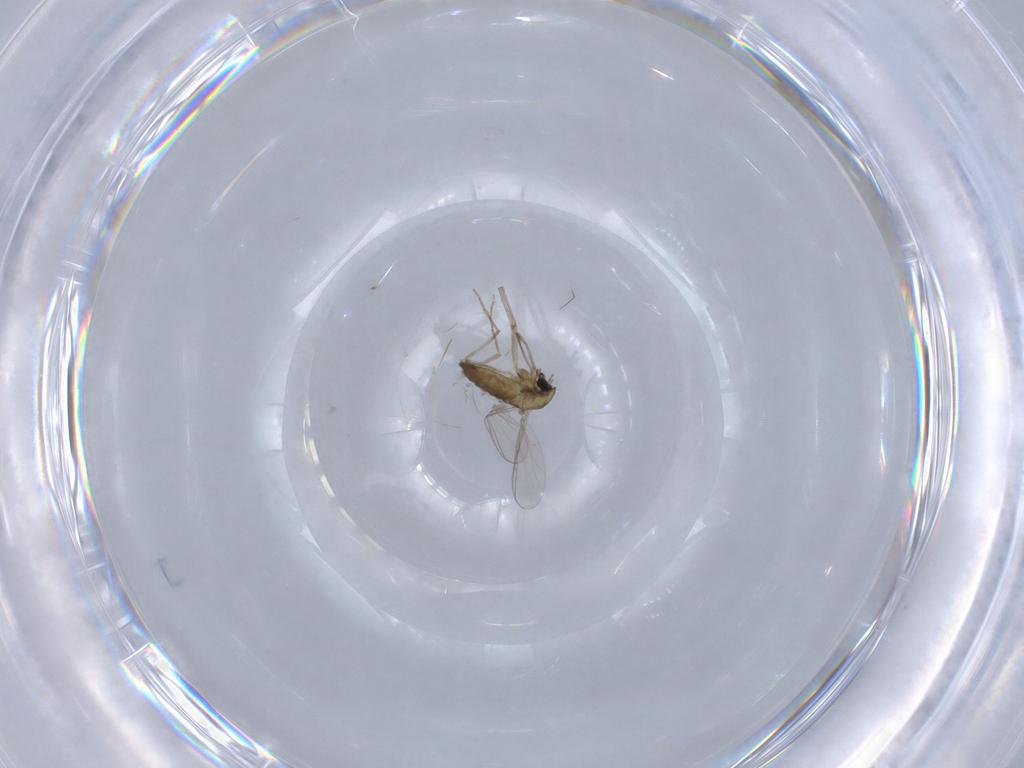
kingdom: Animalia
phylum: Arthropoda
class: Insecta
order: Diptera
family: Chironomidae
